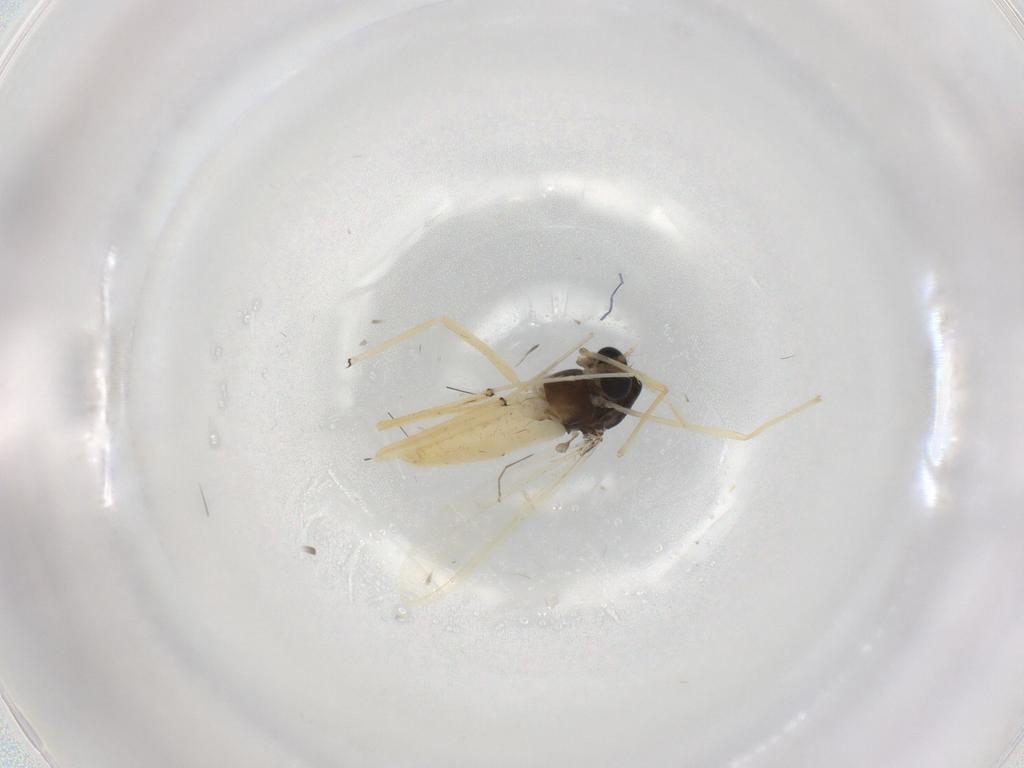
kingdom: Animalia
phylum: Arthropoda
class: Insecta
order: Diptera
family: Chironomidae
